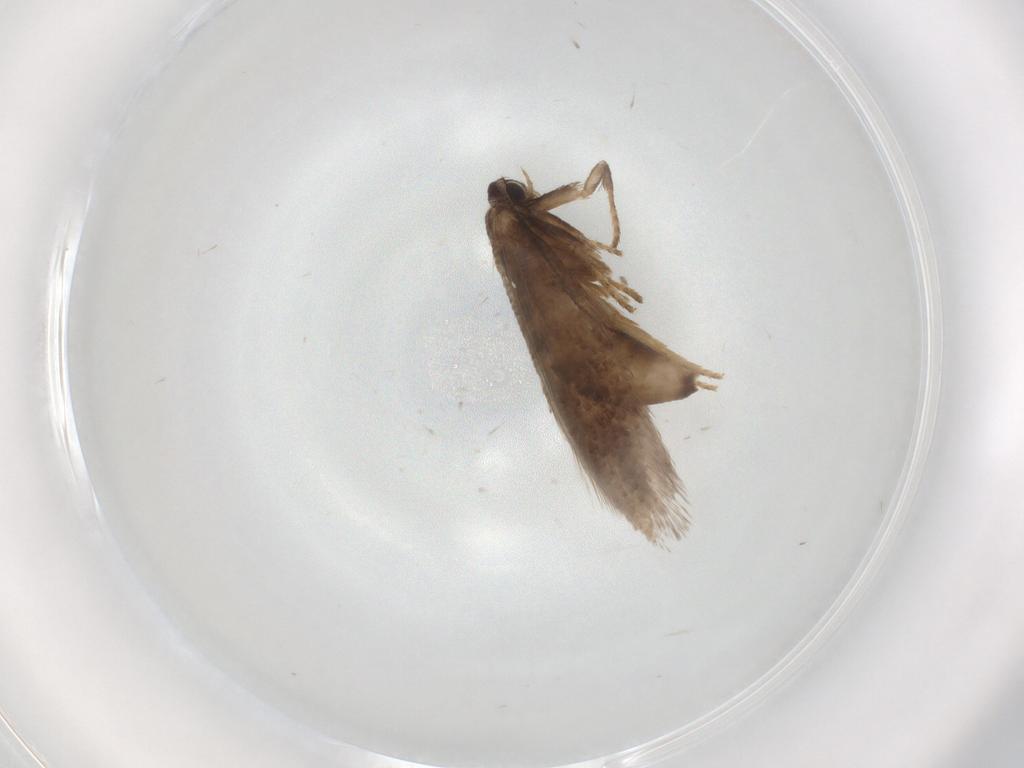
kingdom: Animalia
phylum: Arthropoda
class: Insecta
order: Lepidoptera
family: Nepticulidae
